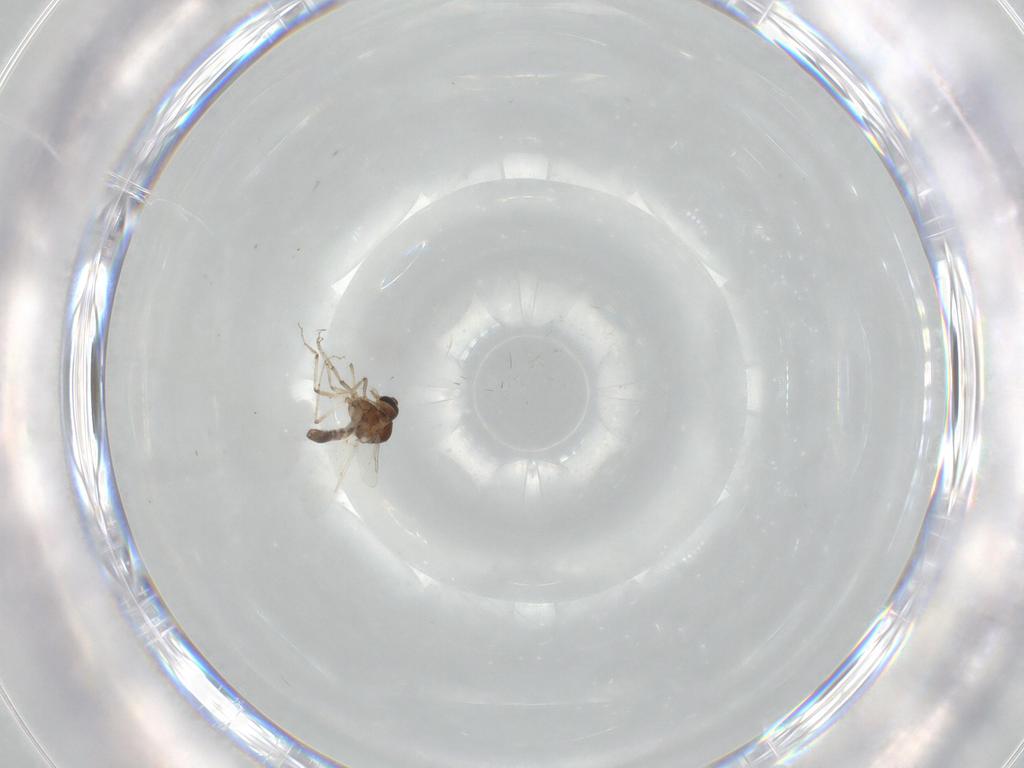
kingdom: Animalia
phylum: Arthropoda
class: Insecta
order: Diptera
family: Ceratopogonidae
